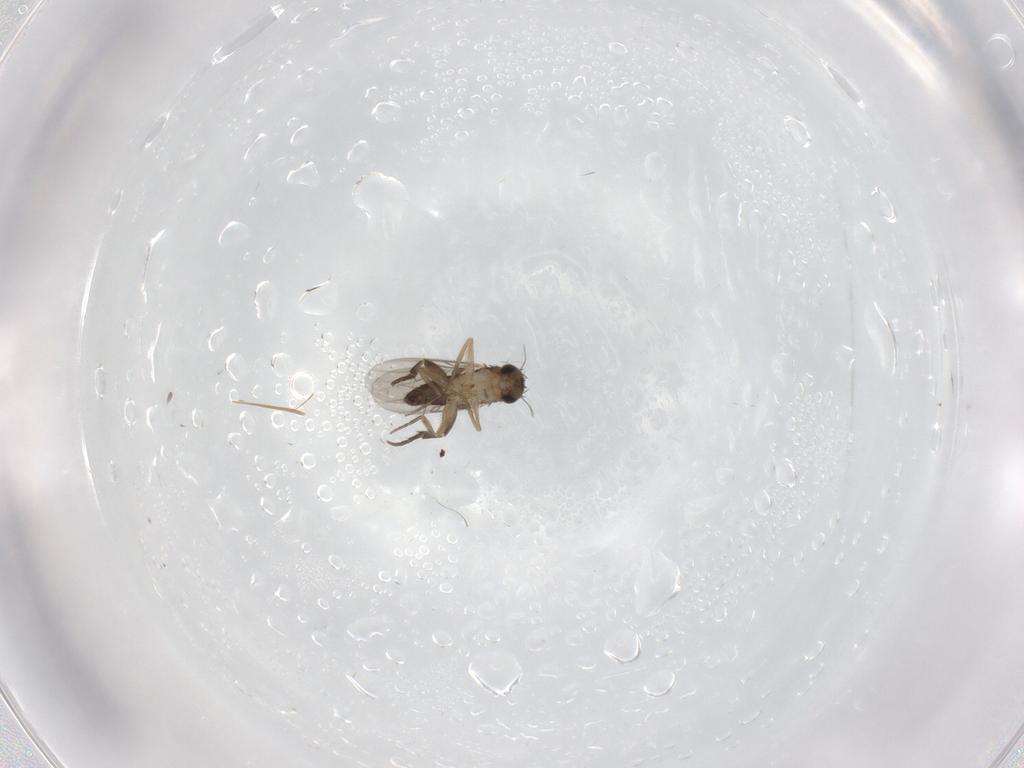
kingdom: Animalia
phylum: Arthropoda
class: Insecta
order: Diptera
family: Phoridae
